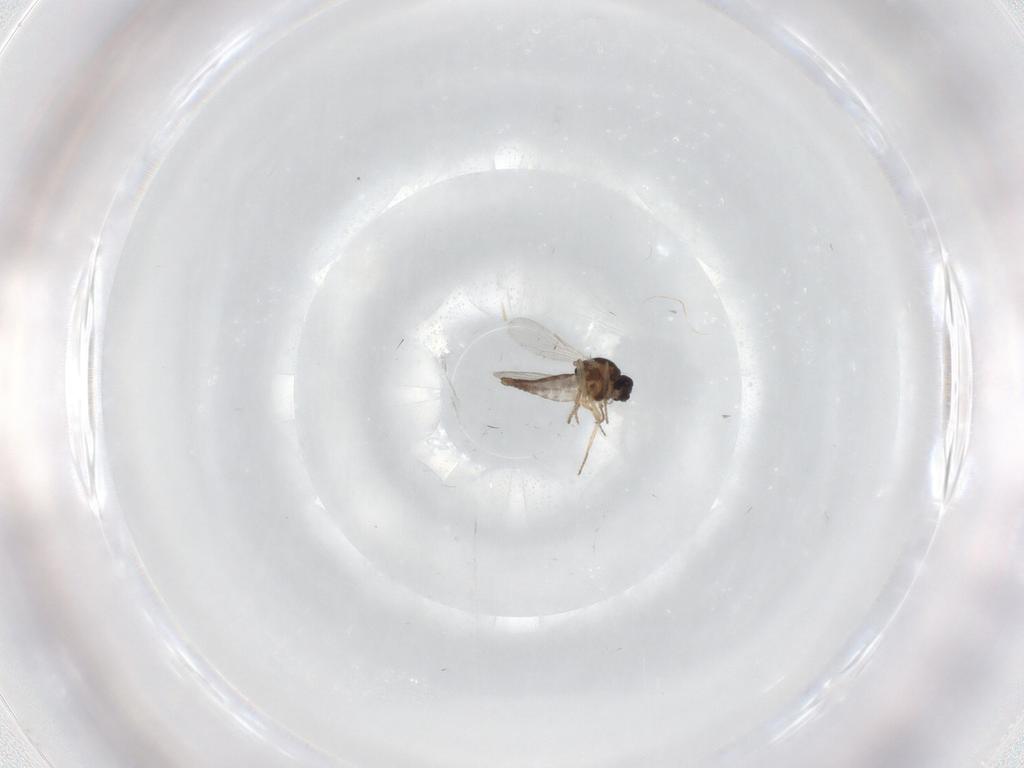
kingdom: Animalia
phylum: Arthropoda
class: Insecta
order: Diptera
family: Ceratopogonidae
